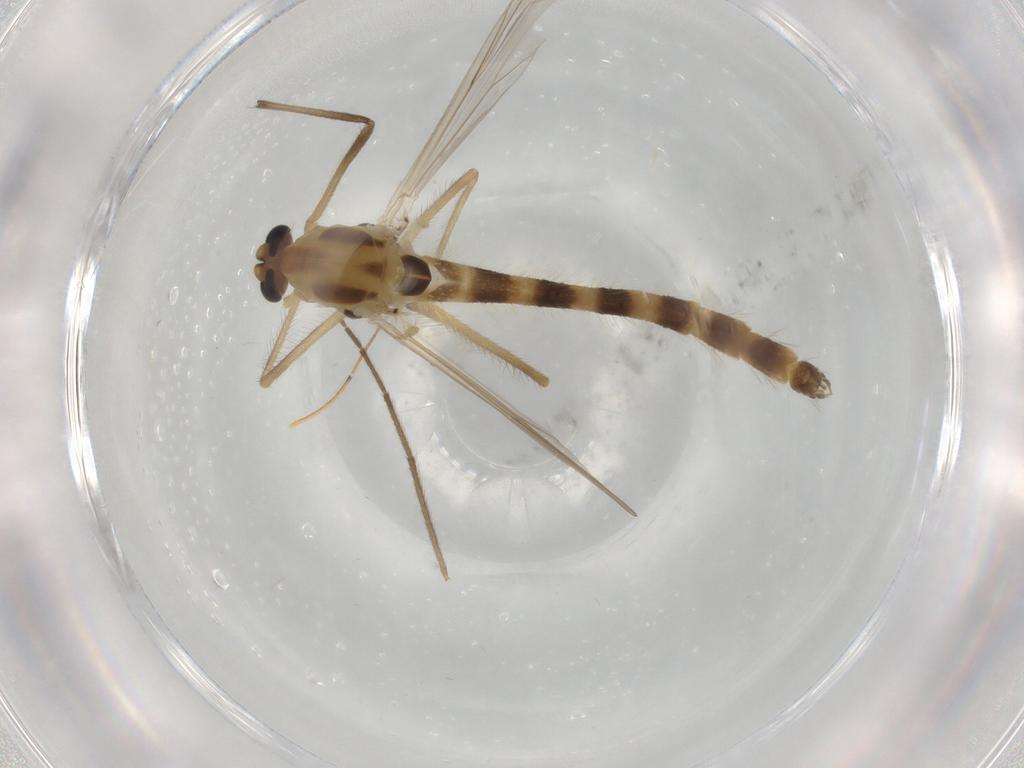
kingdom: Animalia
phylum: Arthropoda
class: Insecta
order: Diptera
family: Chironomidae
